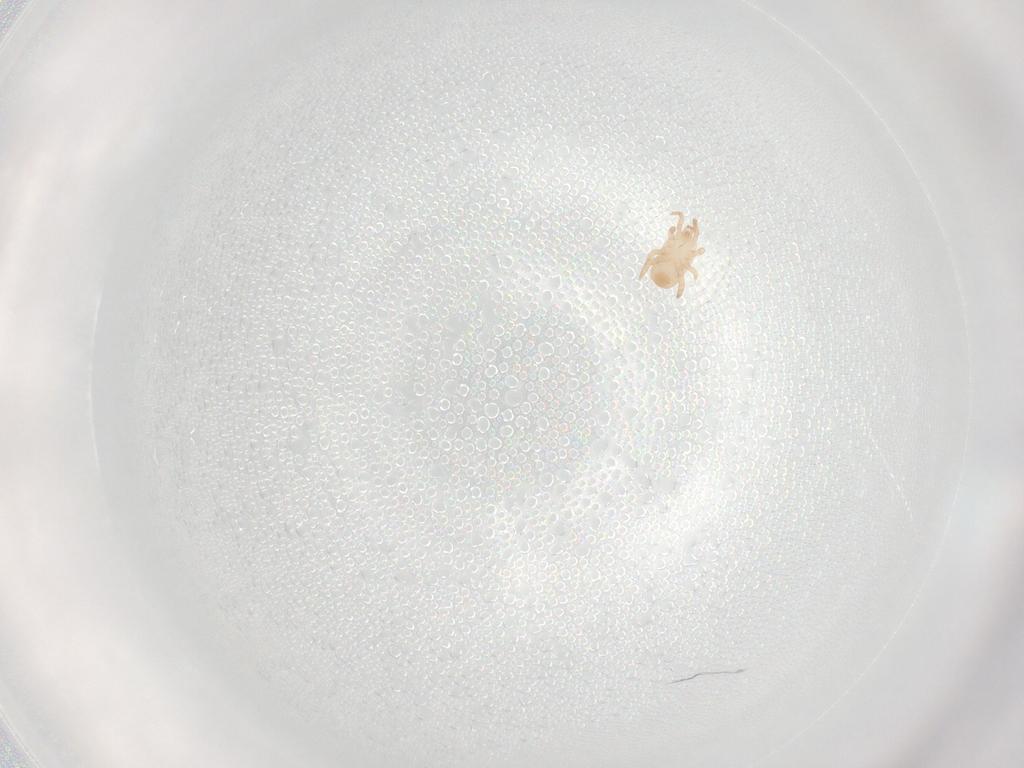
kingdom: Animalia
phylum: Arthropoda
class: Arachnida
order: Mesostigmata
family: Digamasellidae
